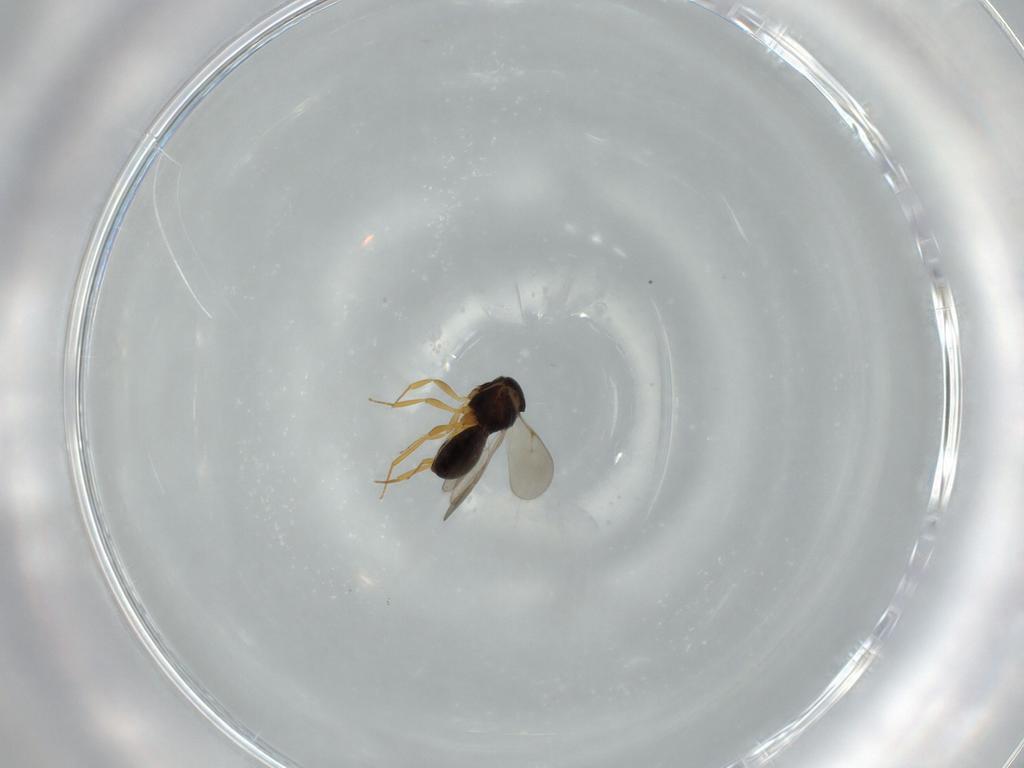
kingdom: Animalia
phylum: Arthropoda
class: Insecta
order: Hymenoptera
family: Scelionidae
